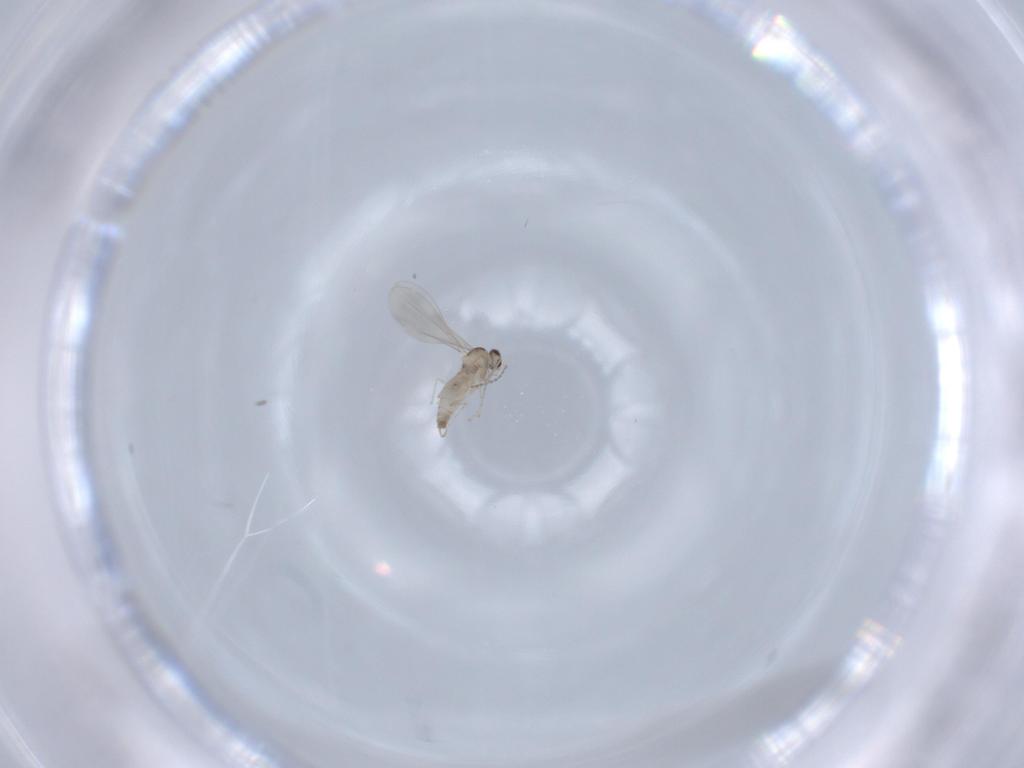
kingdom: Animalia
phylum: Arthropoda
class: Insecta
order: Diptera
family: Cecidomyiidae
